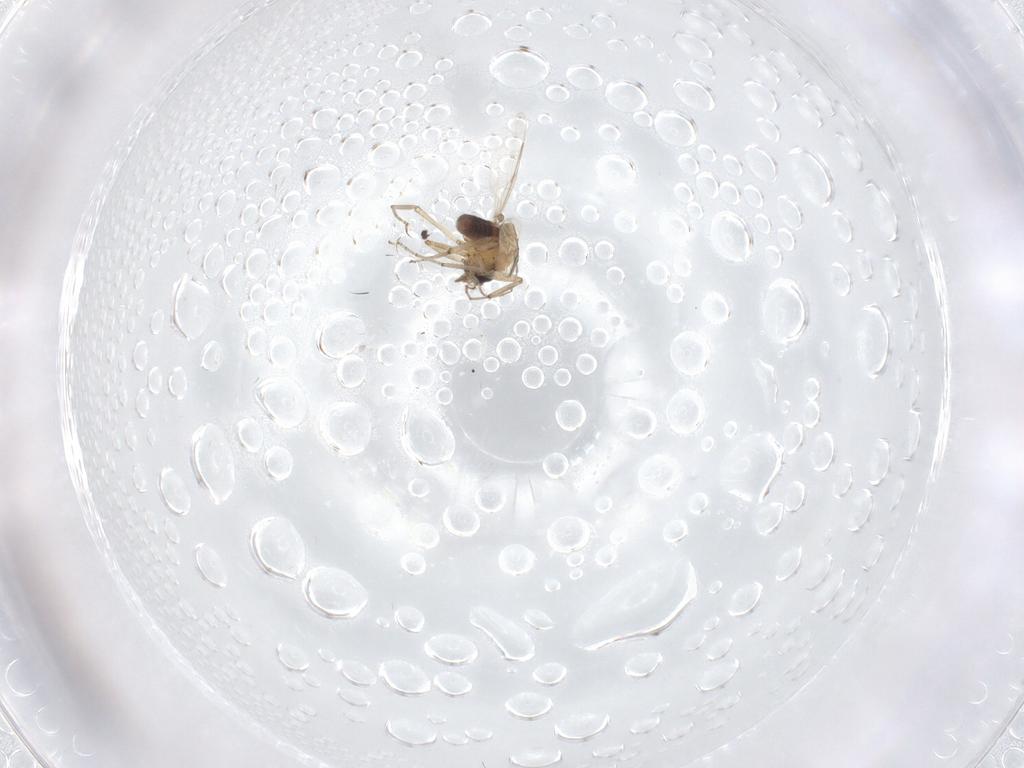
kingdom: Animalia
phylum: Arthropoda
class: Insecta
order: Diptera
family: Ceratopogonidae
